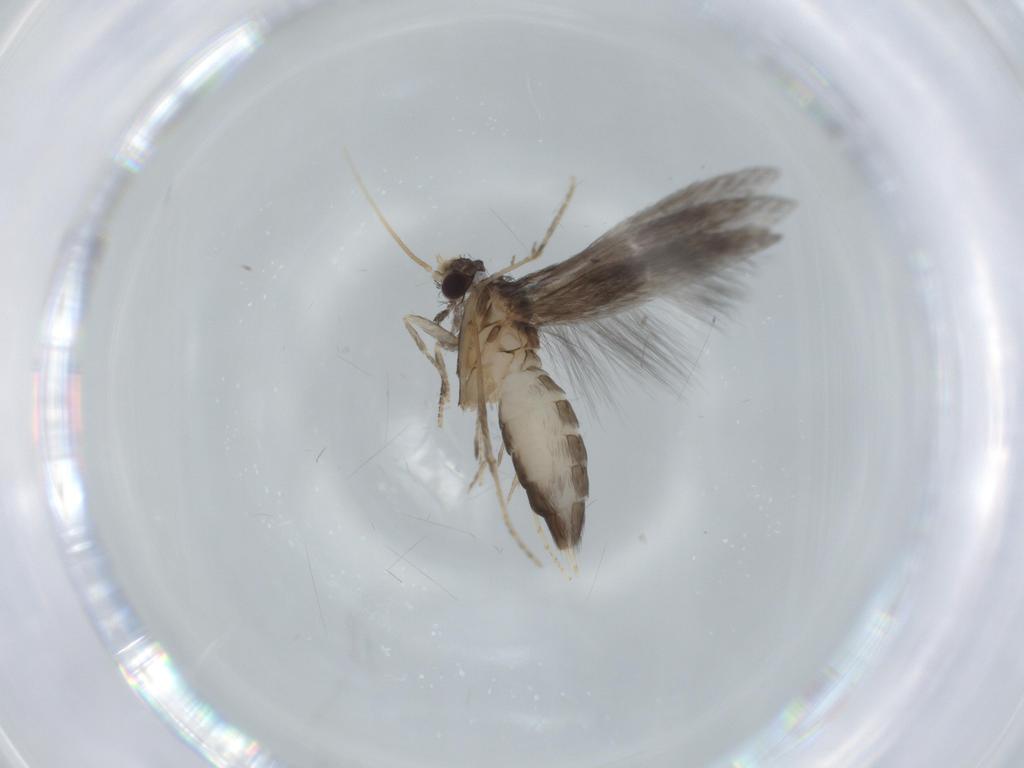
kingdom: Animalia
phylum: Arthropoda
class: Insecta
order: Trichoptera
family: Hydroptilidae
